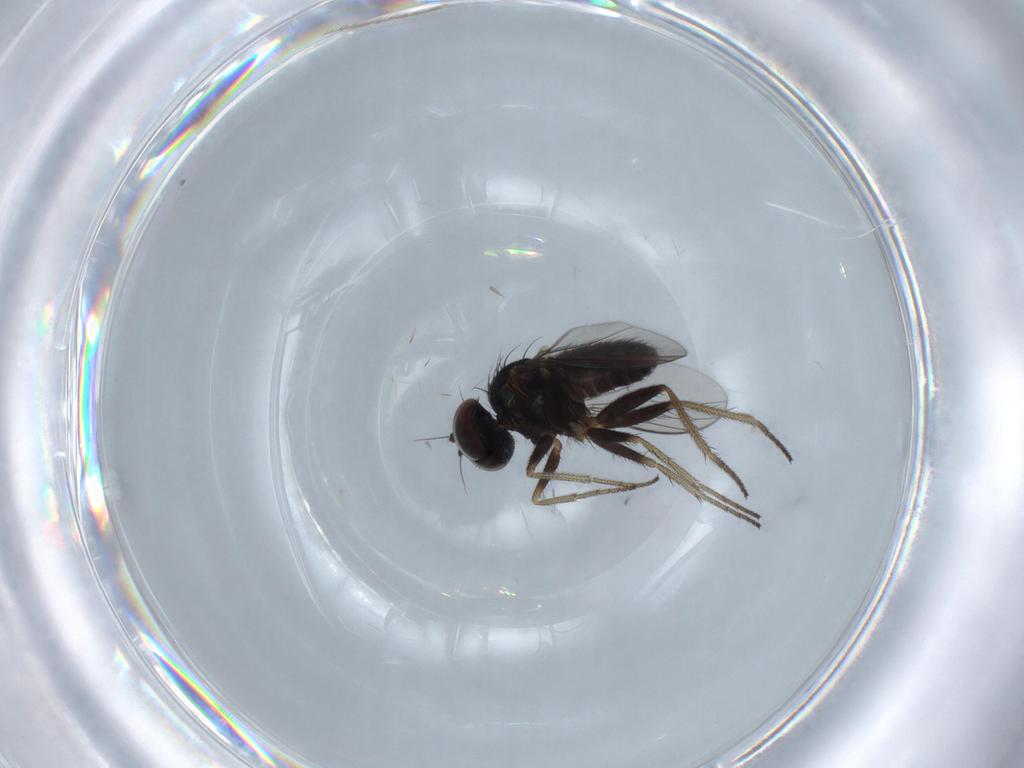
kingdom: Animalia
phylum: Arthropoda
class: Insecta
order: Diptera
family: Dolichopodidae
